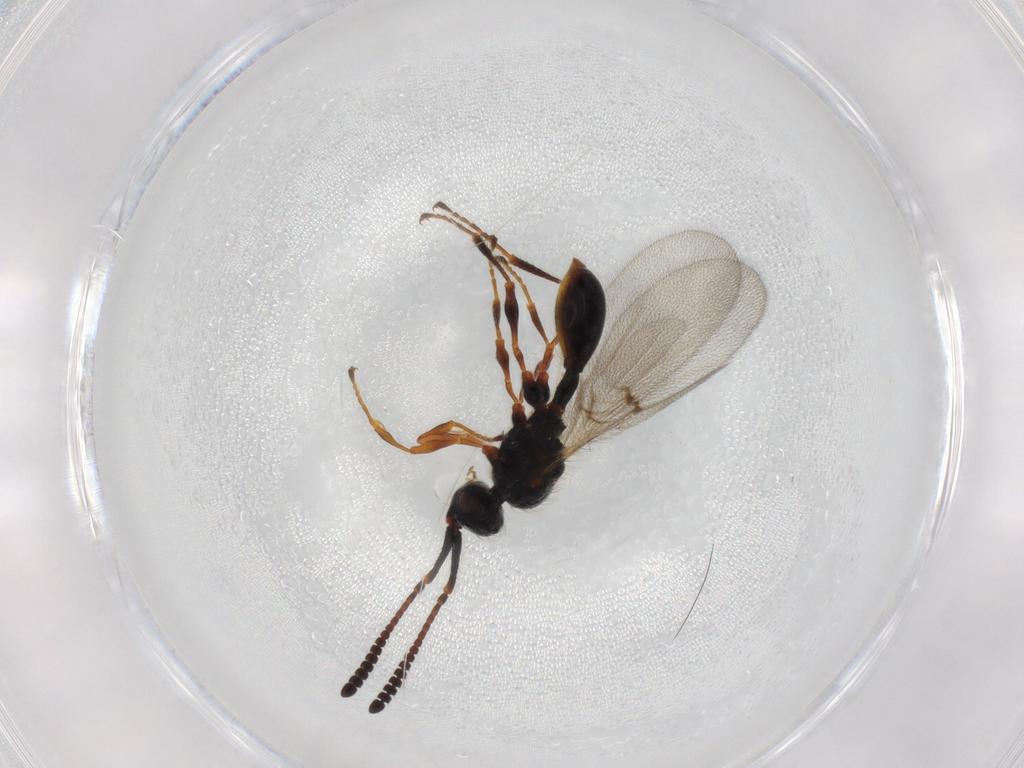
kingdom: Animalia
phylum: Arthropoda
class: Insecta
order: Hymenoptera
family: Diapriidae
